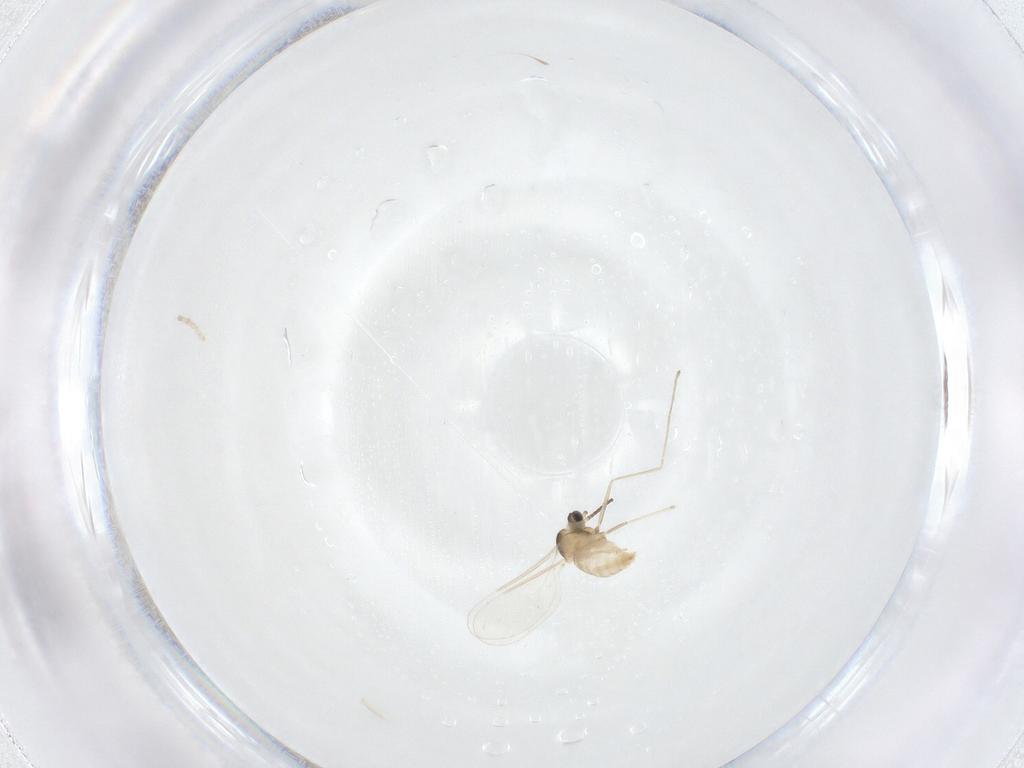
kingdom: Animalia
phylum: Arthropoda
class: Insecta
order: Diptera
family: Cecidomyiidae
